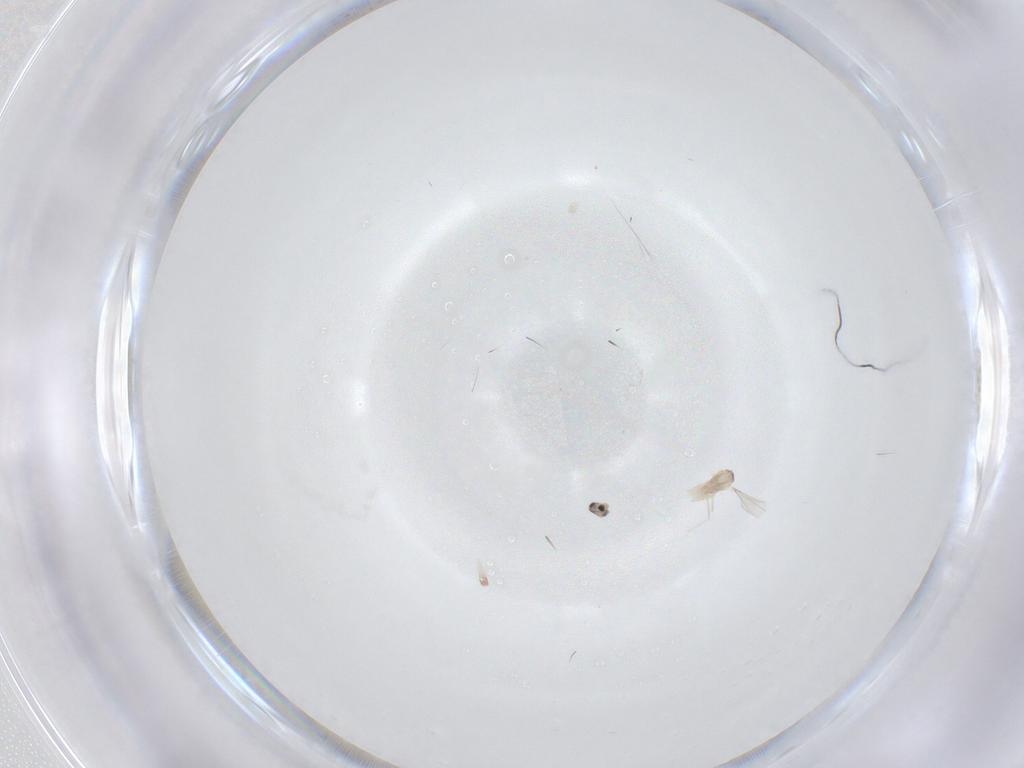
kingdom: Animalia
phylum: Arthropoda
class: Insecta
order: Diptera
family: Cecidomyiidae
